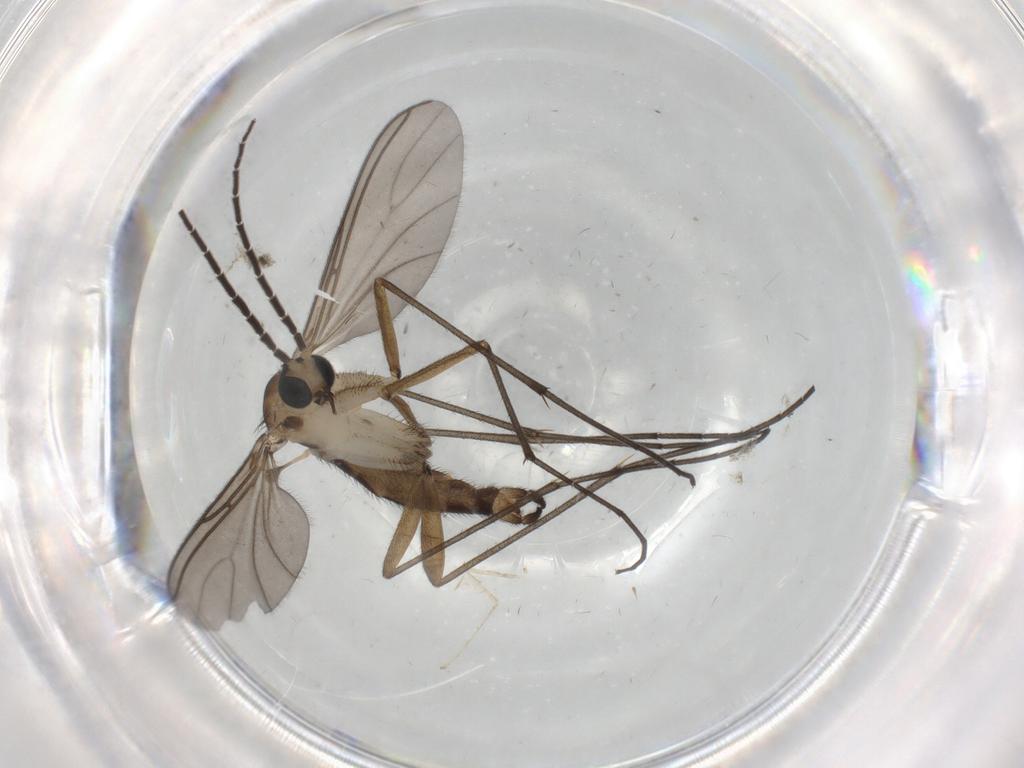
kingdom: Animalia
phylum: Arthropoda
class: Insecta
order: Diptera
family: Sciaridae
